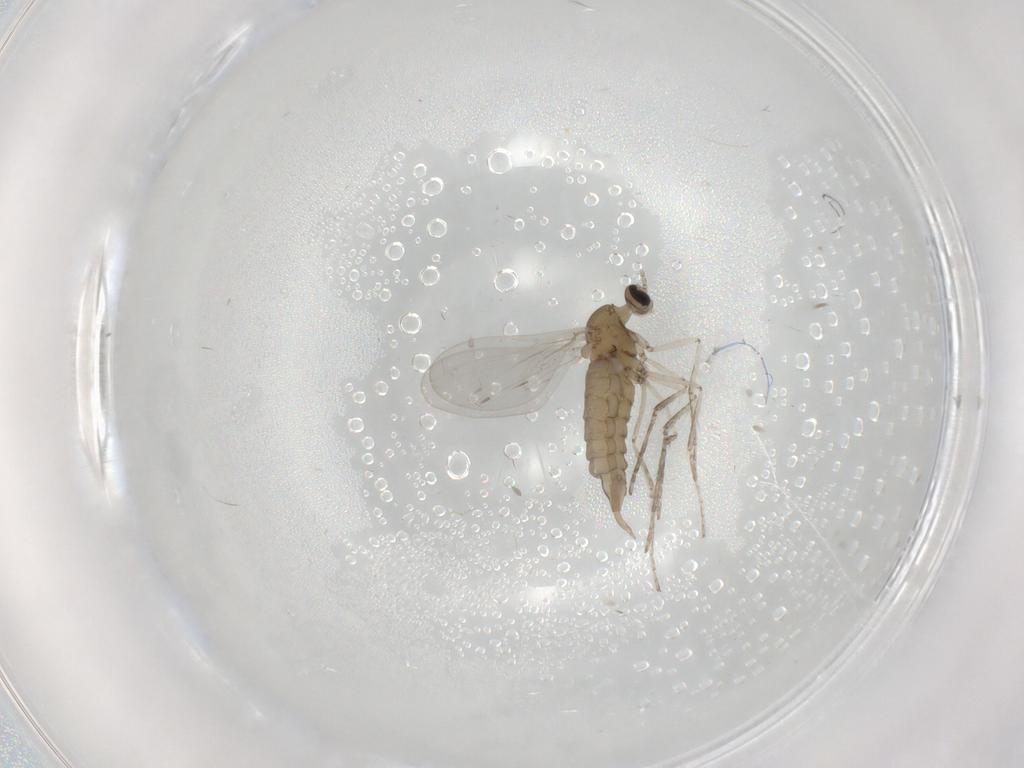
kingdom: Animalia
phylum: Arthropoda
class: Insecta
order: Diptera
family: Cecidomyiidae
